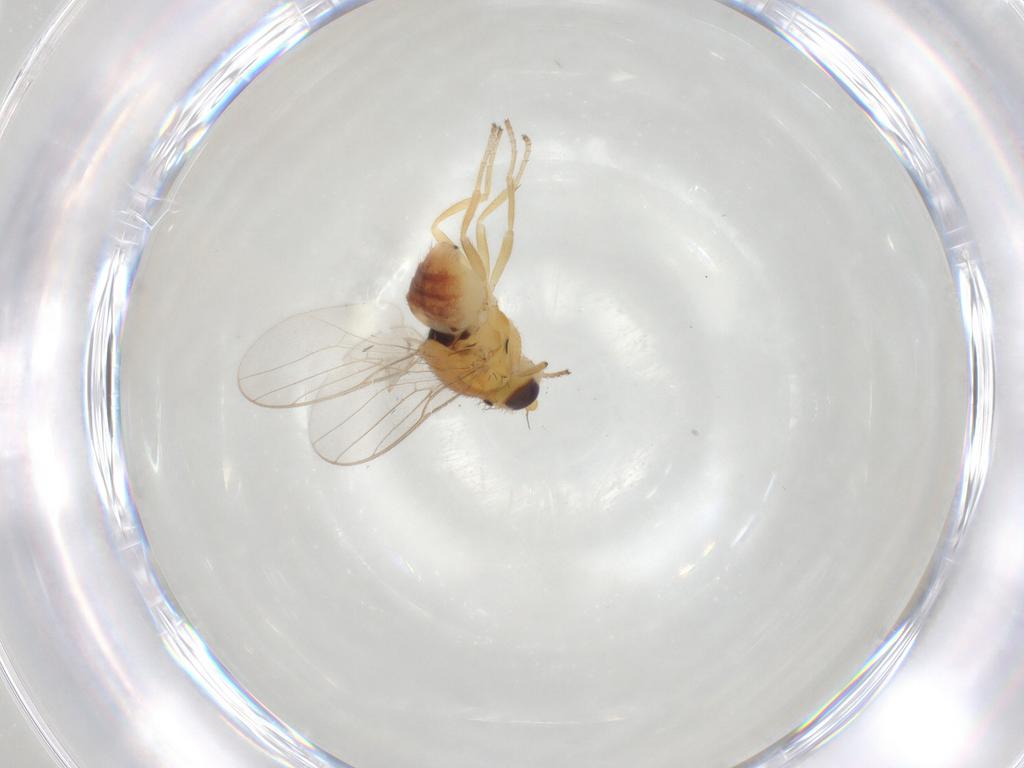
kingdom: Animalia
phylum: Arthropoda
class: Insecta
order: Diptera
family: Chloropidae
